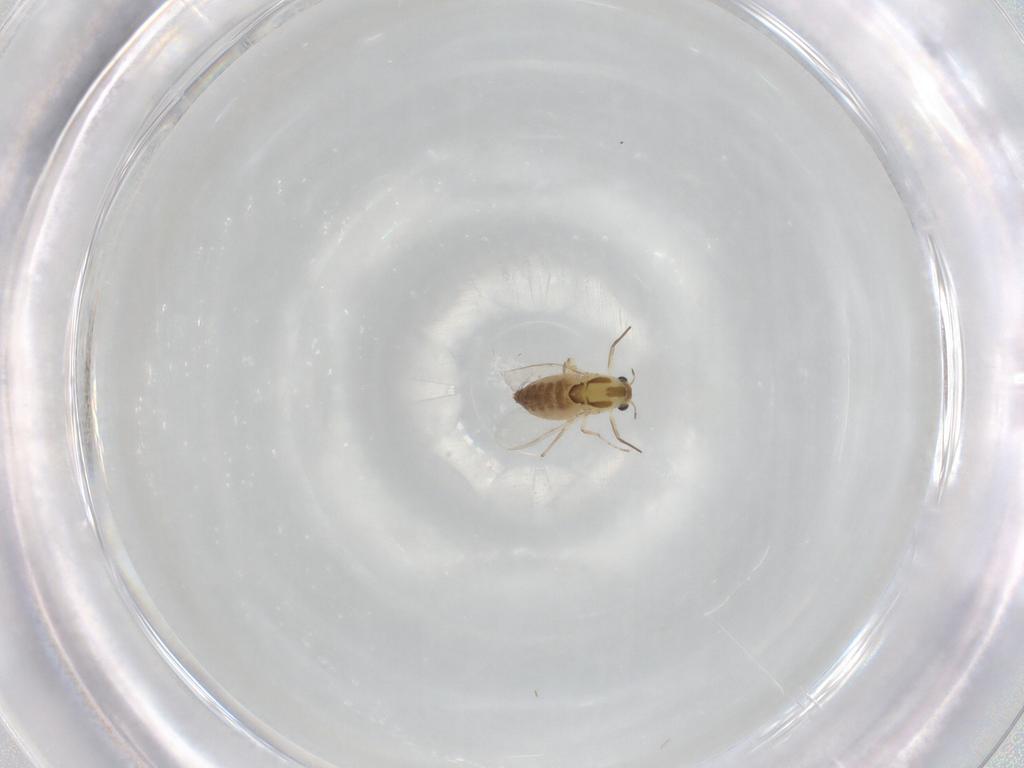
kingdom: Animalia
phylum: Arthropoda
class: Insecta
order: Diptera
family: Chironomidae
